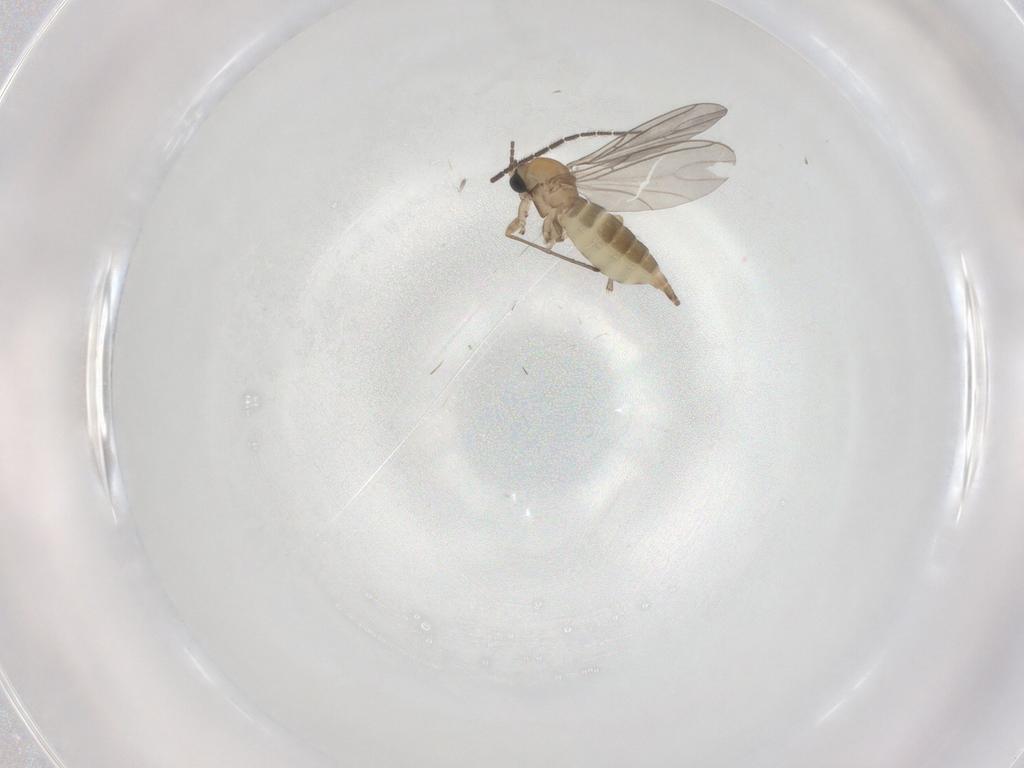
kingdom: Animalia
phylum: Arthropoda
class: Insecta
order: Diptera
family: Sciaridae
